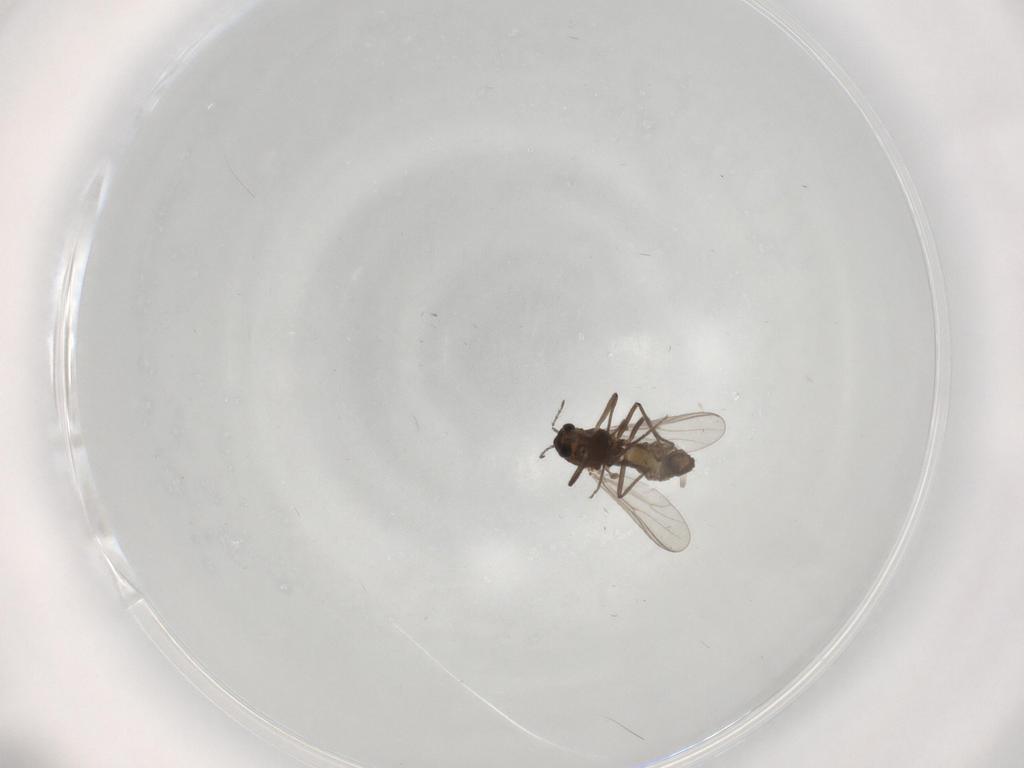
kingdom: Animalia
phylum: Arthropoda
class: Insecta
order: Diptera
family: Chironomidae
